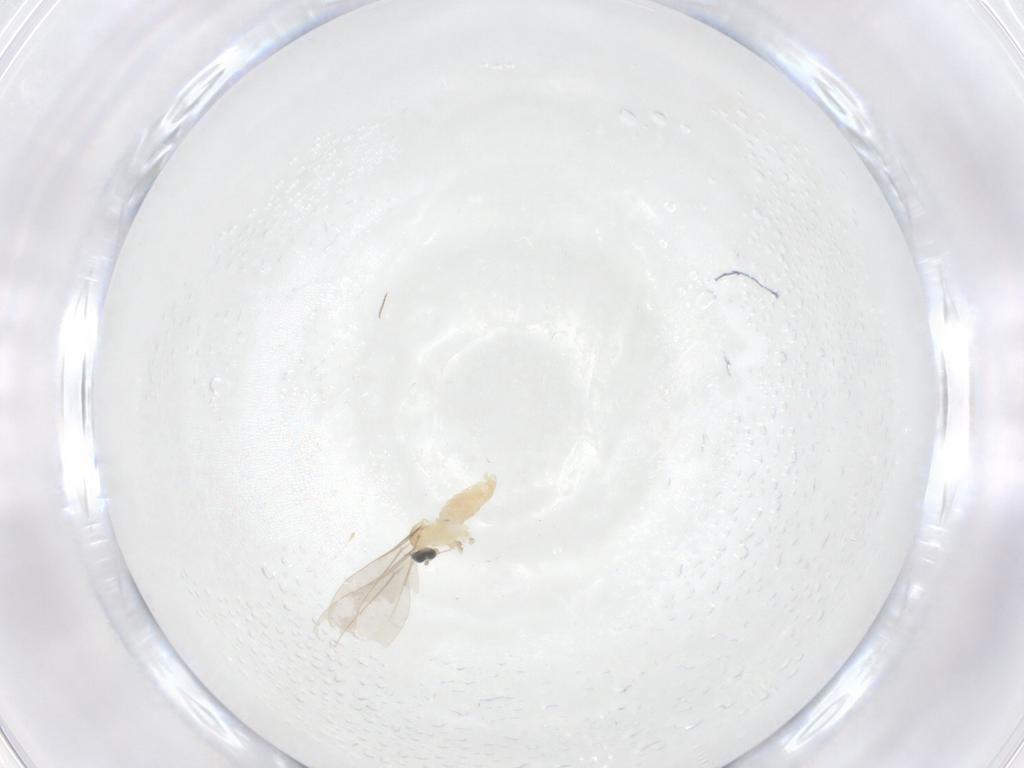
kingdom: Animalia
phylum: Arthropoda
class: Insecta
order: Diptera
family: Cecidomyiidae
